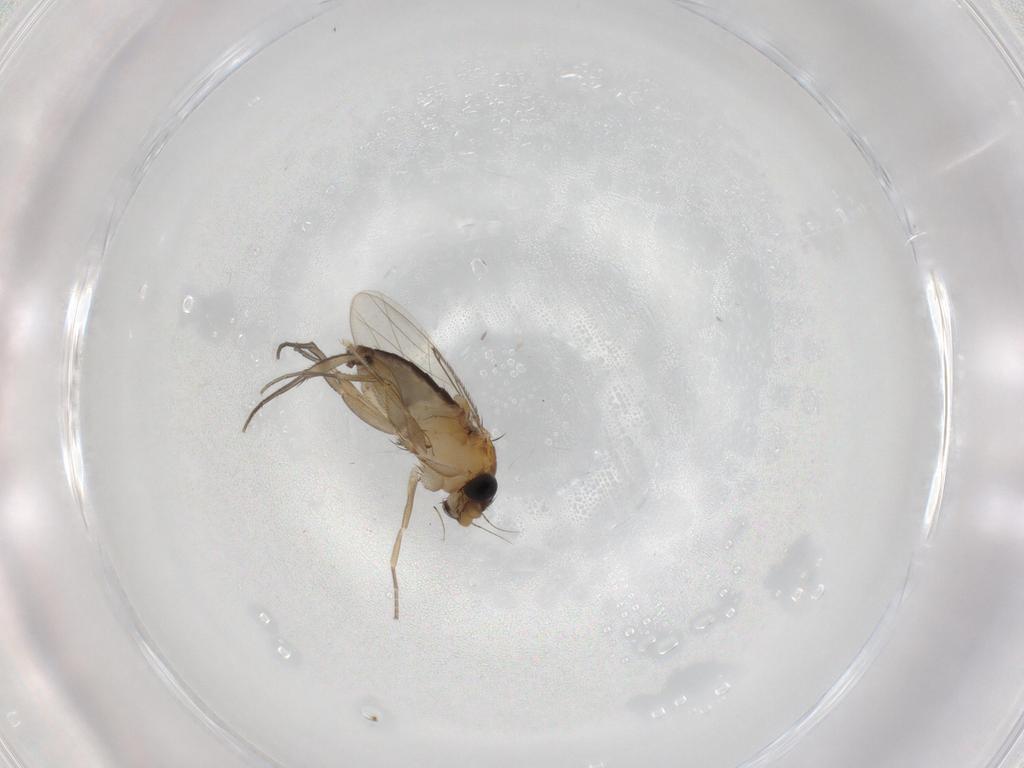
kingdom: Animalia
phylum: Arthropoda
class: Insecta
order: Diptera
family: Phoridae
